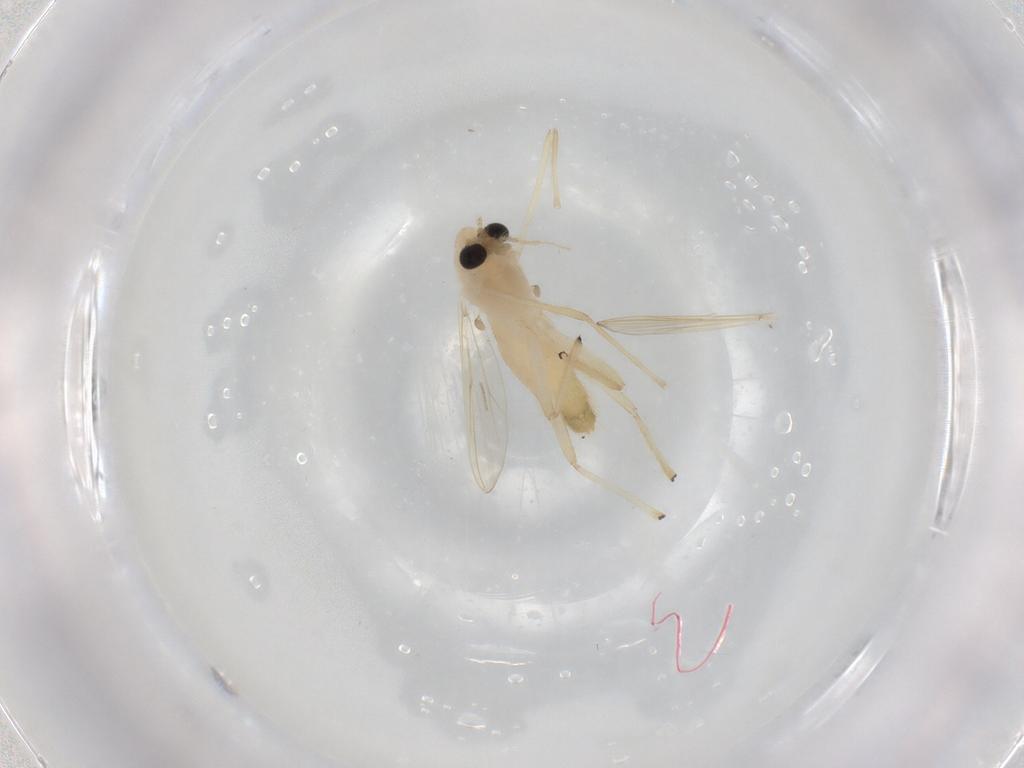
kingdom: Animalia
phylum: Arthropoda
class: Insecta
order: Diptera
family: Chironomidae
